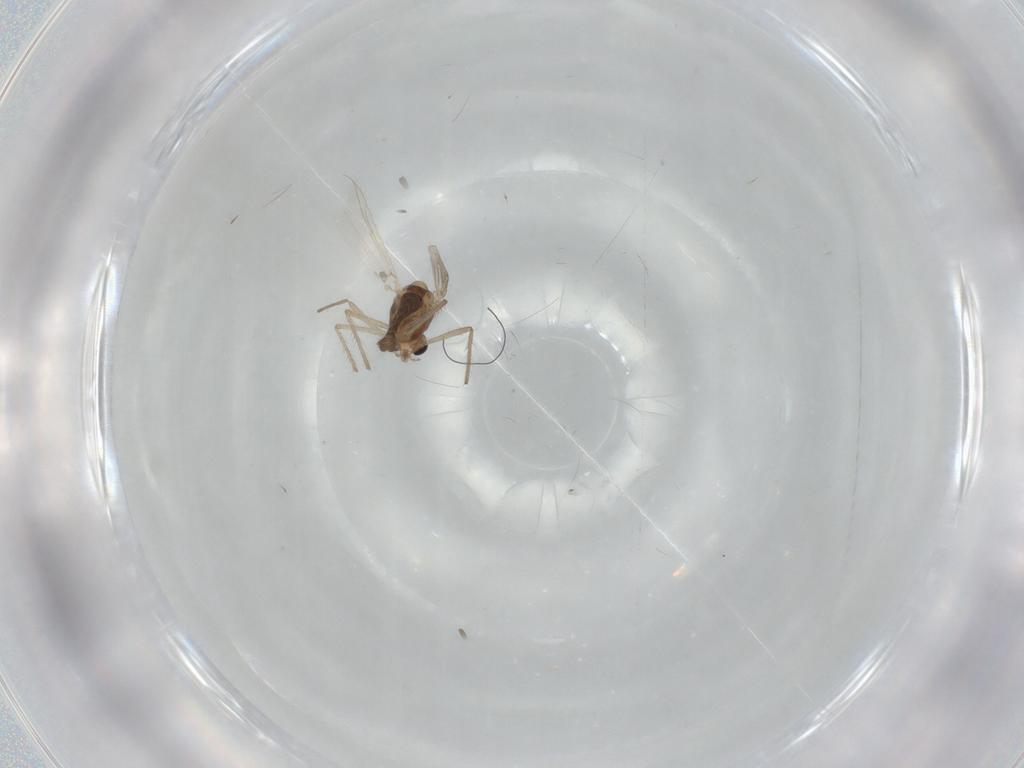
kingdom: Animalia
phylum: Arthropoda
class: Insecta
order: Diptera
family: Chironomidae
